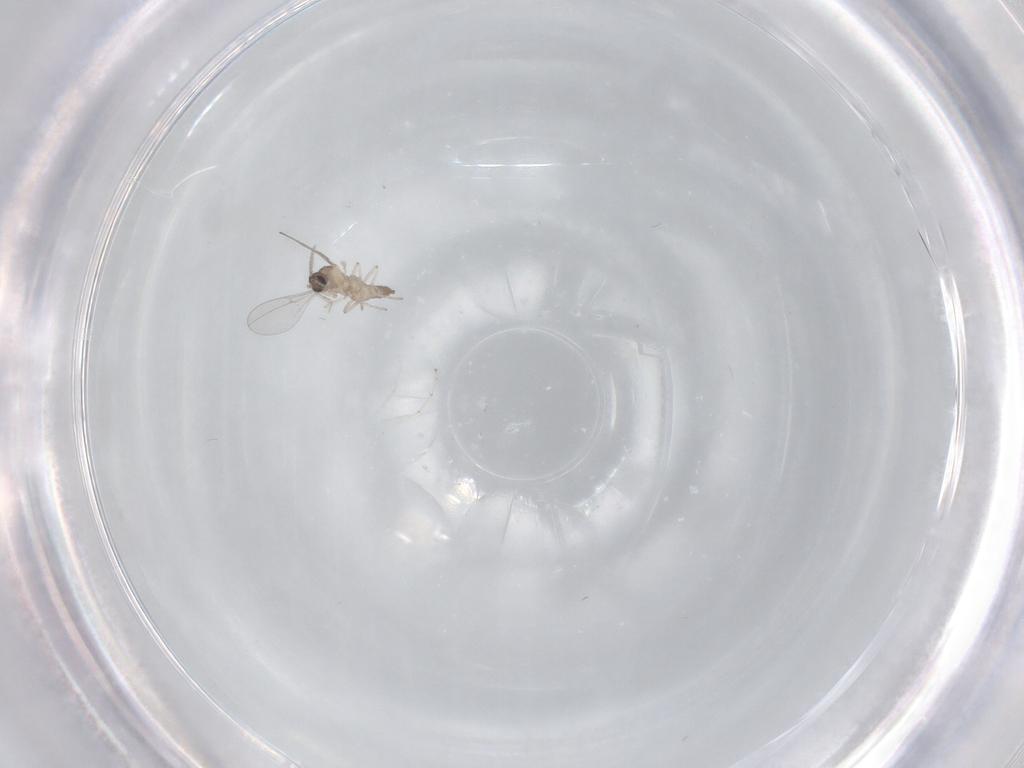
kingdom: Animalia
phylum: Arthropoda
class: Insecta
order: Diptera
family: Cecidomyiidae
